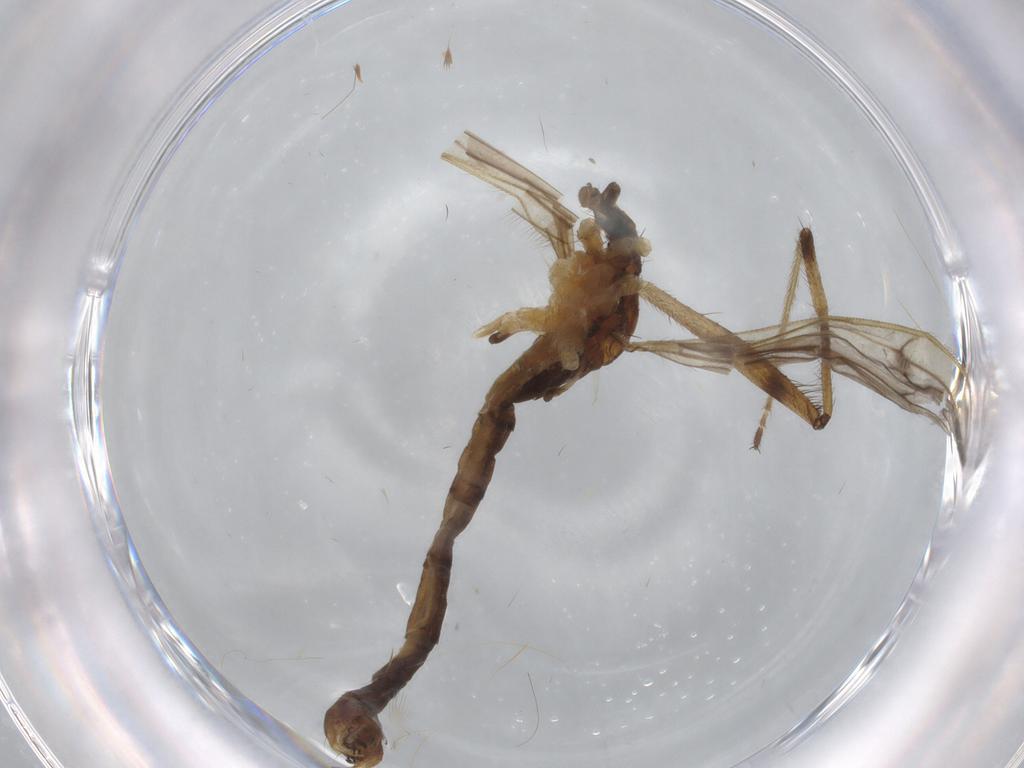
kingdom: Animalia
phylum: Arthropoda
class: Insecta
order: Diptera
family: Limoniidae
